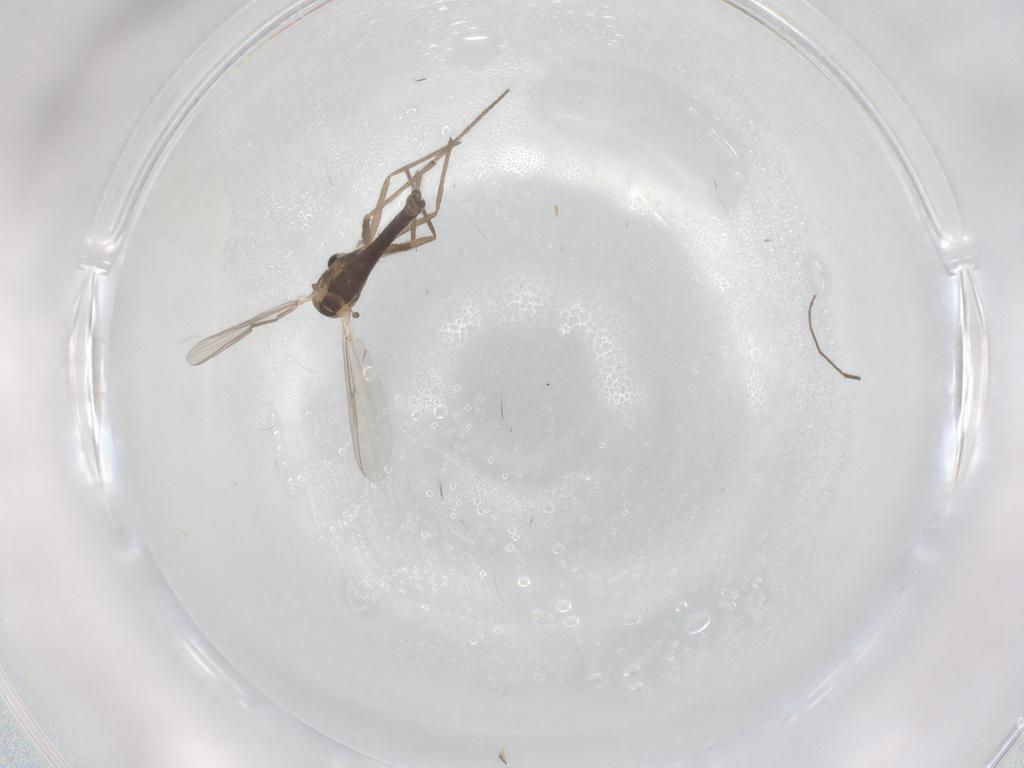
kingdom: Animalia
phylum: Arthropoda
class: Insecta
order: Diptera
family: Chironomidae
